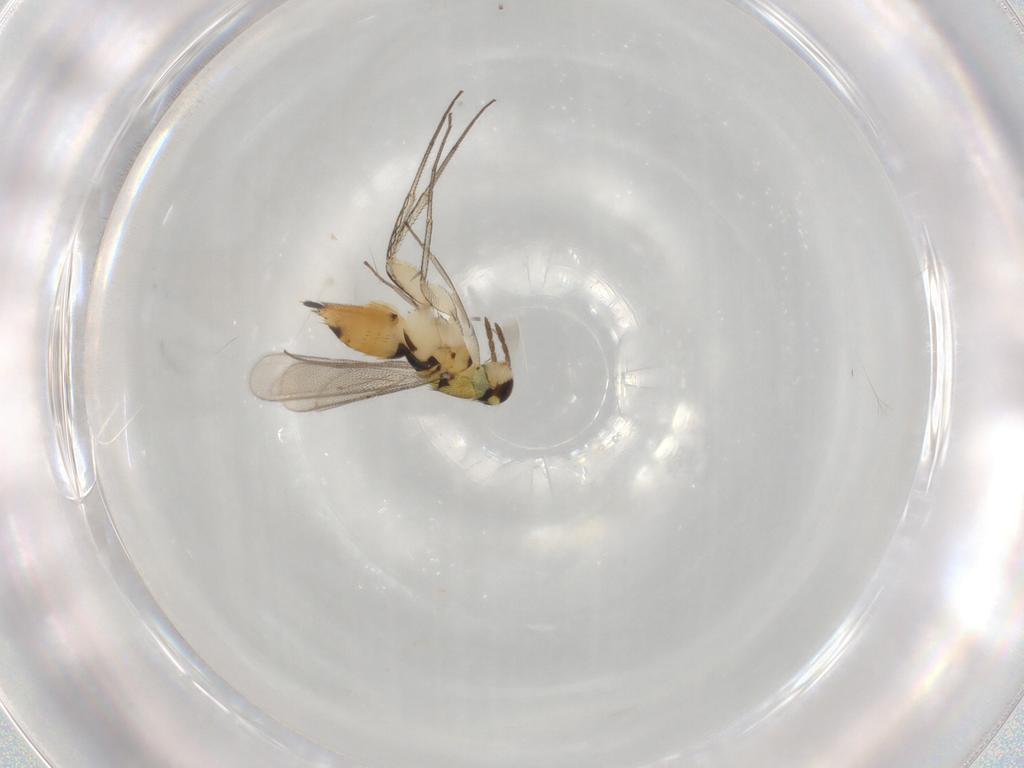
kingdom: Animalia
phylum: Arthropoda
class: Insecta
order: Hymenoptera
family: Eulophidae
